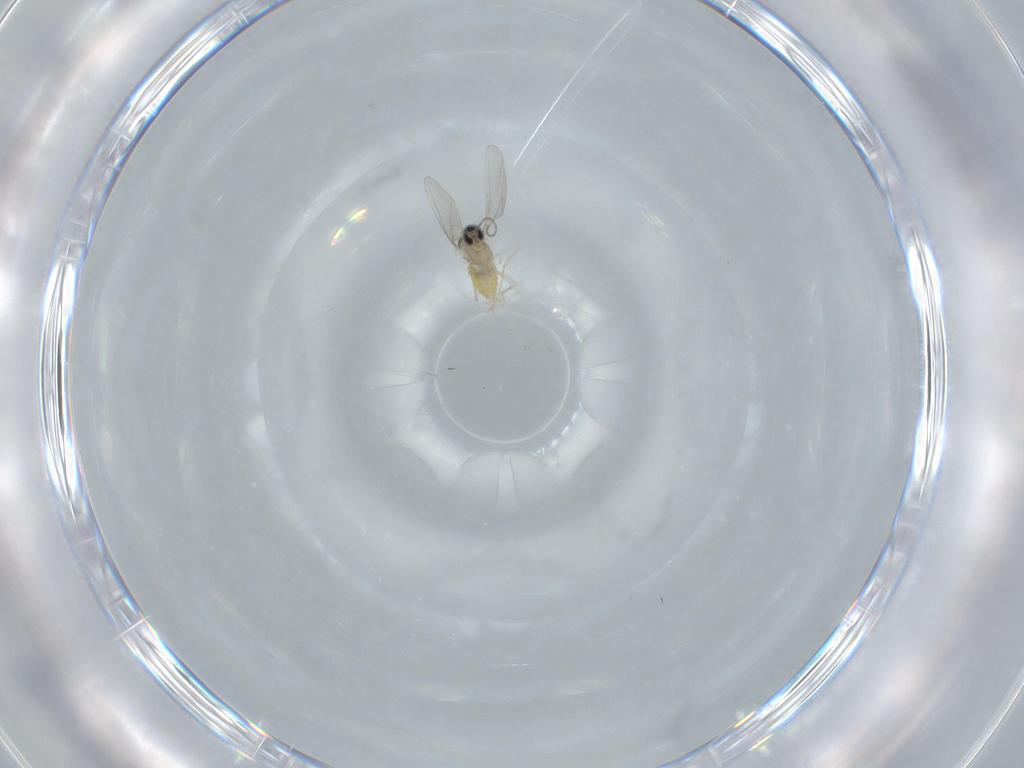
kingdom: Animalia
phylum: Arthropoda
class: Insecta
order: Diptera
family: Cecidomyiidae
